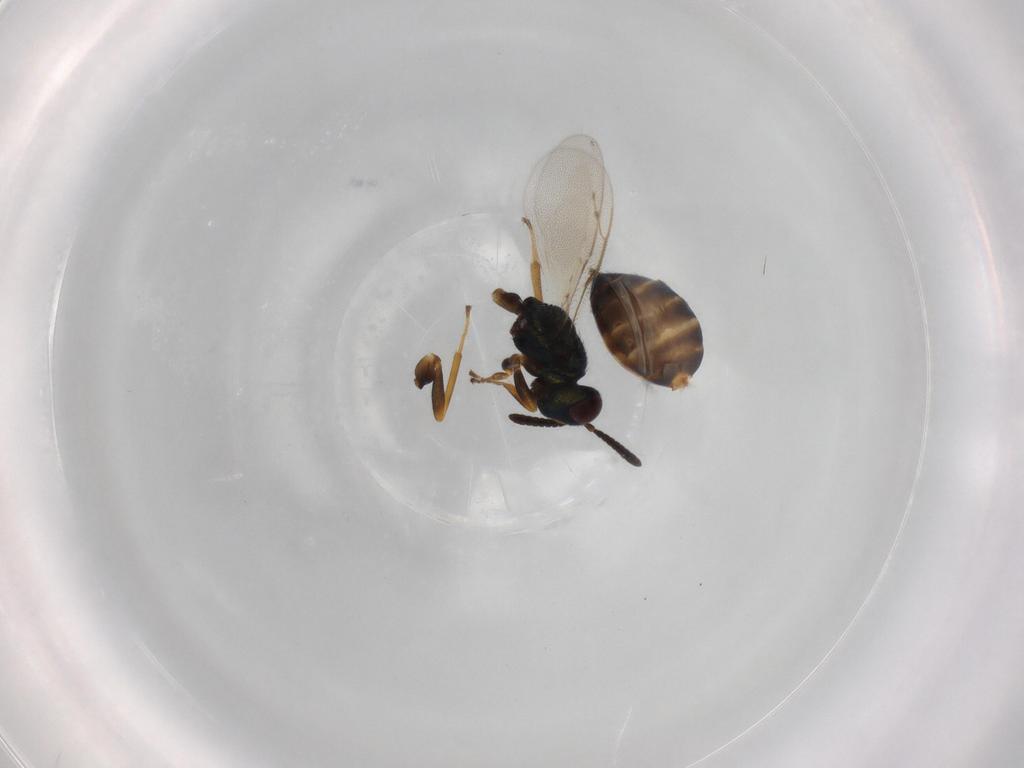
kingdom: Animalia
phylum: Arthropoda
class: Insecta
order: Hymenoptera
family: Pteromalidae
